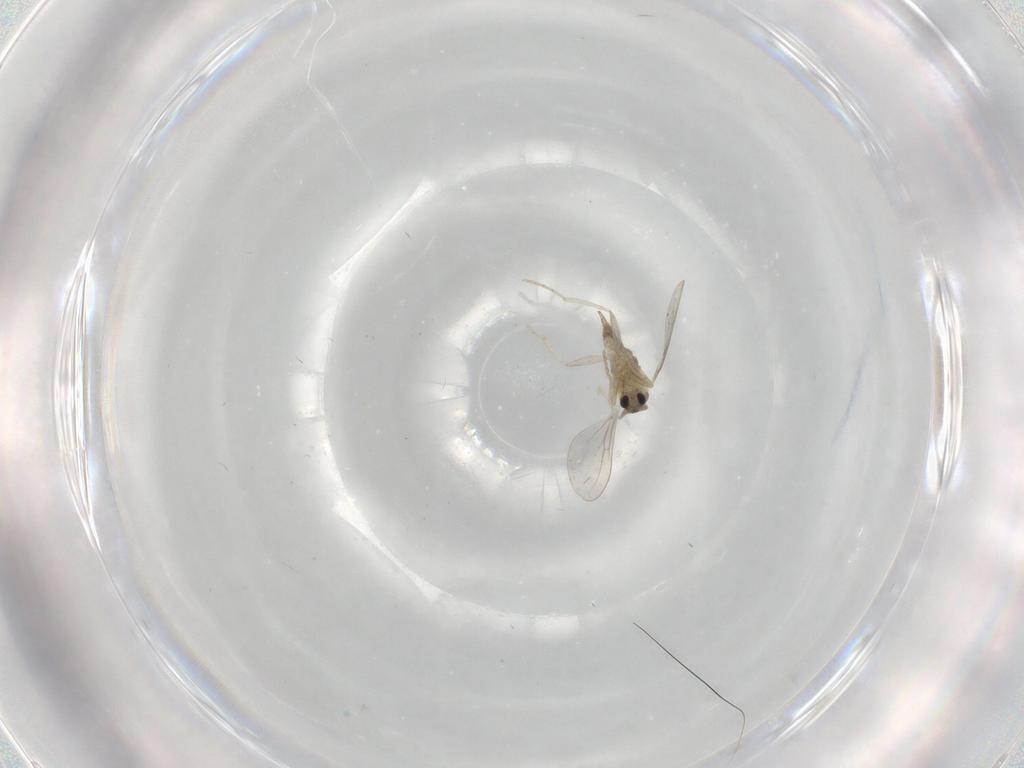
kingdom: Animalia
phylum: Arthropoda
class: Insecta
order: Diptera
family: Cecidomyiidae
